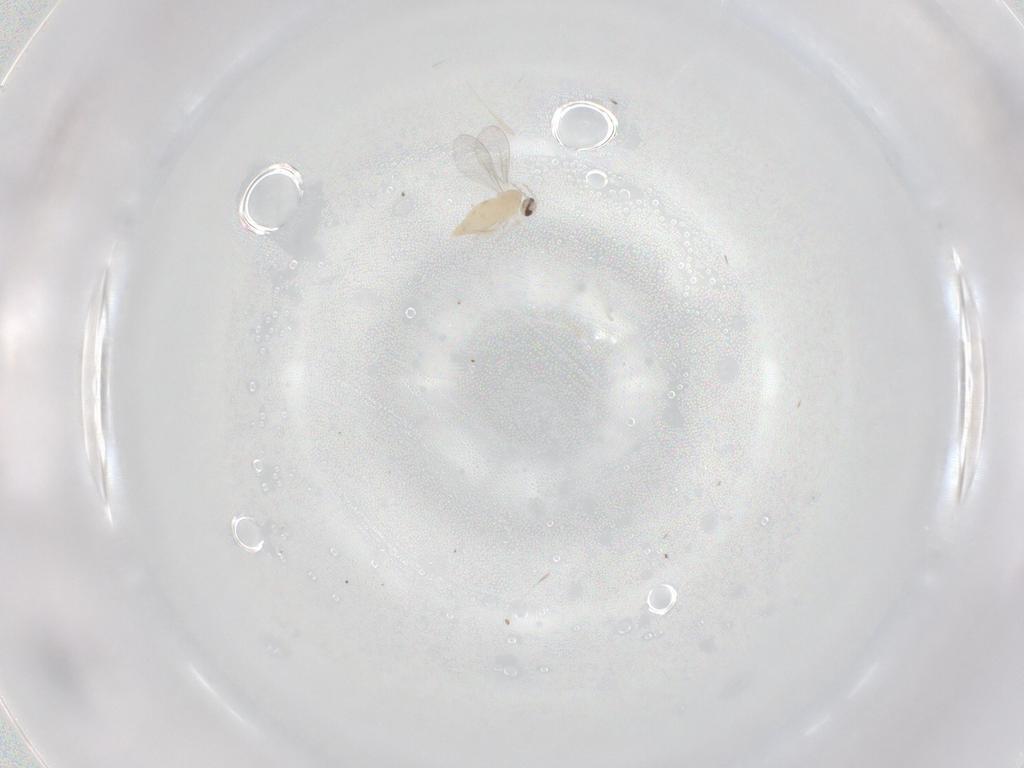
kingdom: Animalia
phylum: Arthropoda
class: Insecta
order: Diptera
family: Cecidomyiidae
